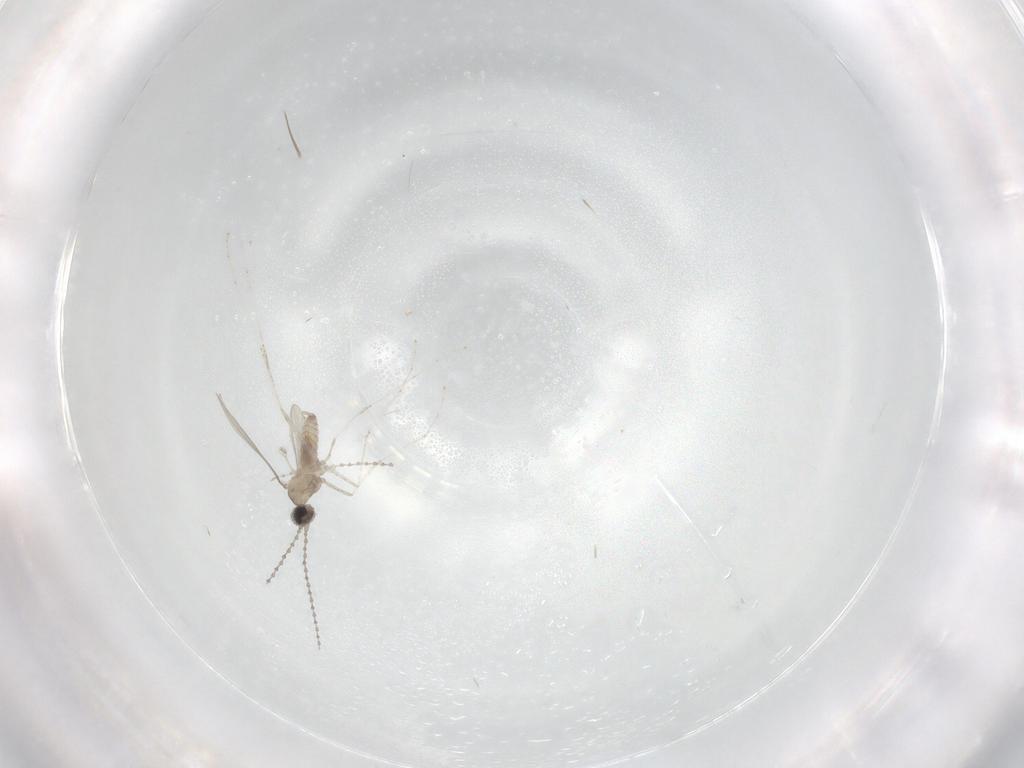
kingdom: Animalia
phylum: Arthropoda
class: Insecta
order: Diptera
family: Cecidomyiidae
